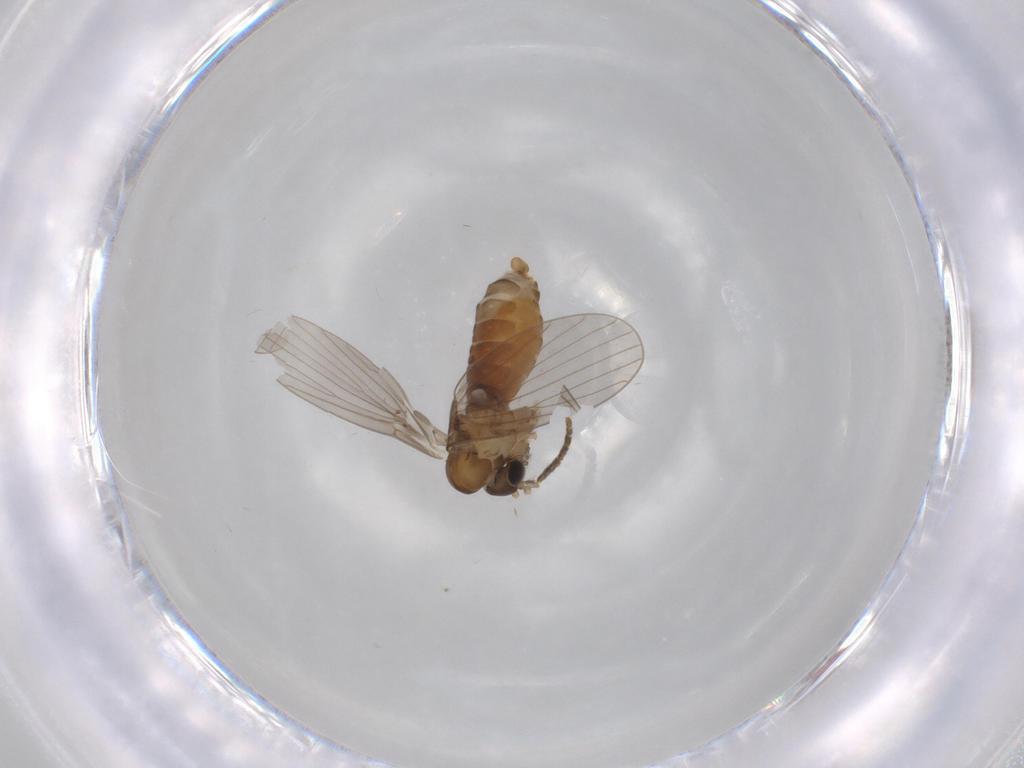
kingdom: Animalia
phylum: Arthropoda
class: Insecta
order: Diptera
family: Psychodidae
